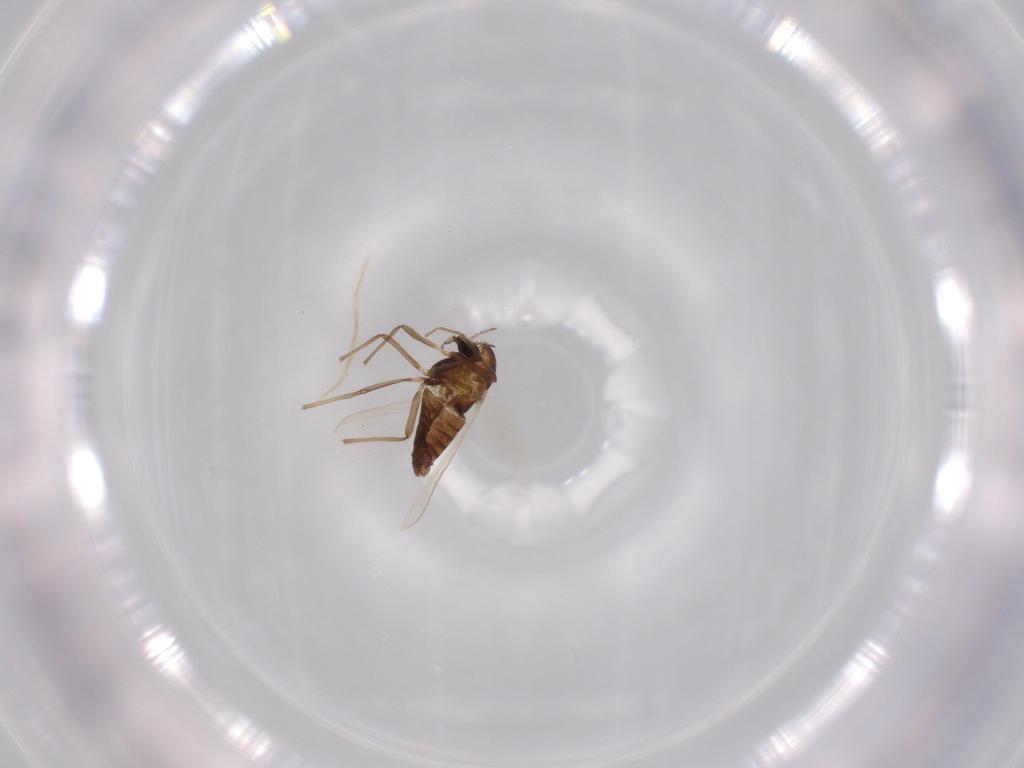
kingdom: Animalia
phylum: Arthropoda
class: Insecta
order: Diptera
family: Chironomidae
